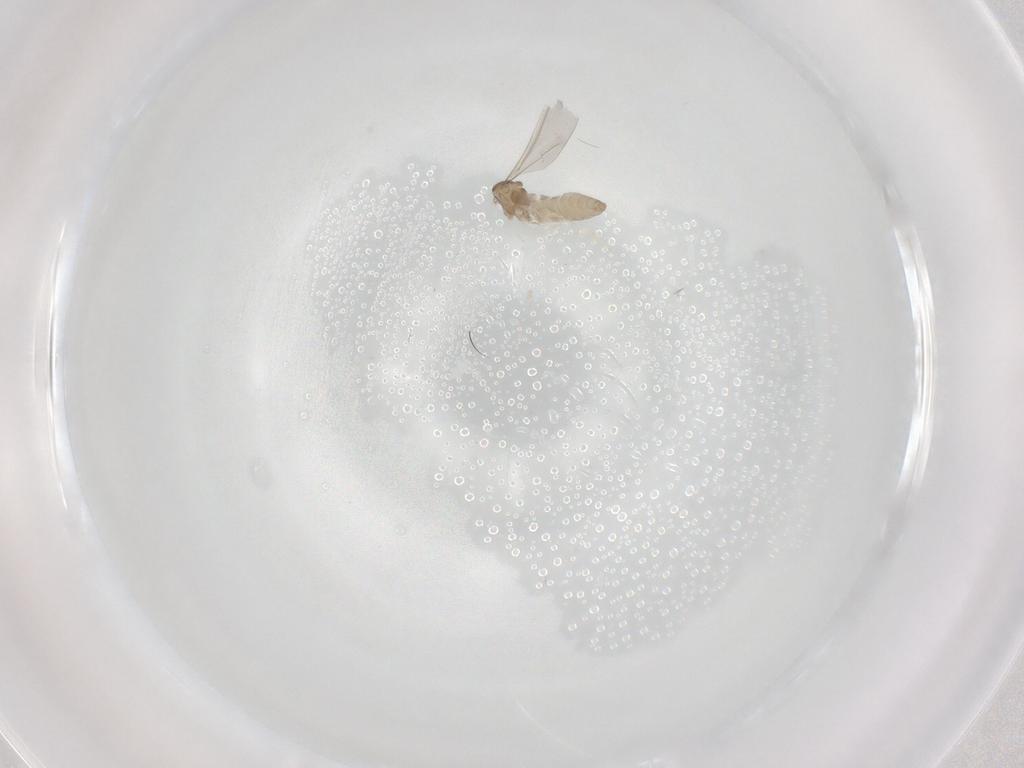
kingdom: Animalia
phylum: Arthropoda
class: Insecta
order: Diptera
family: Cecidomyiidae
